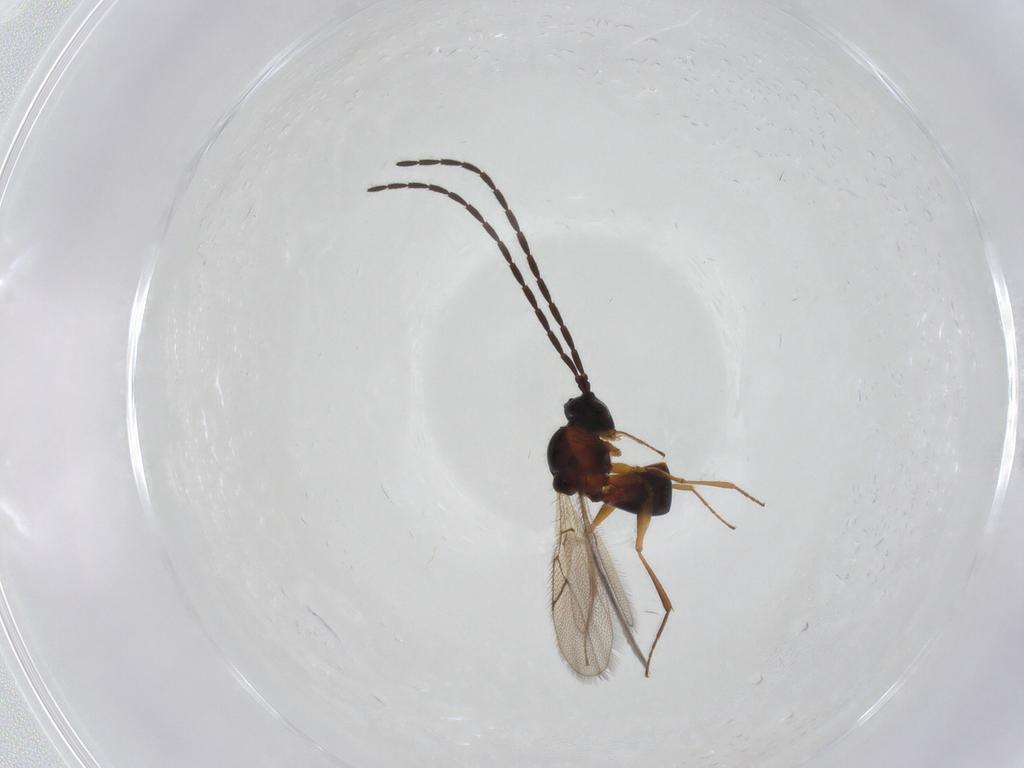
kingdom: Animalia
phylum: Arthropoda
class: Insecta
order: Hymenoptera
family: Figitidae
